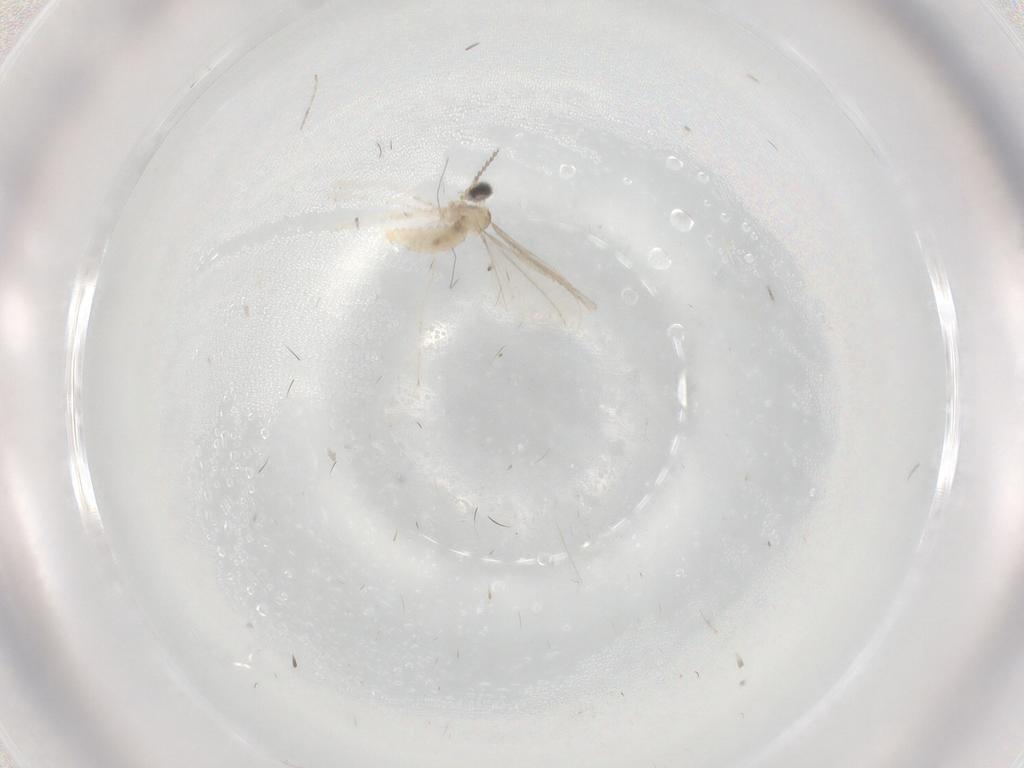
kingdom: Animalia
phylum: Arthropoda
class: Insecta
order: Diptera
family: Chironomidae
